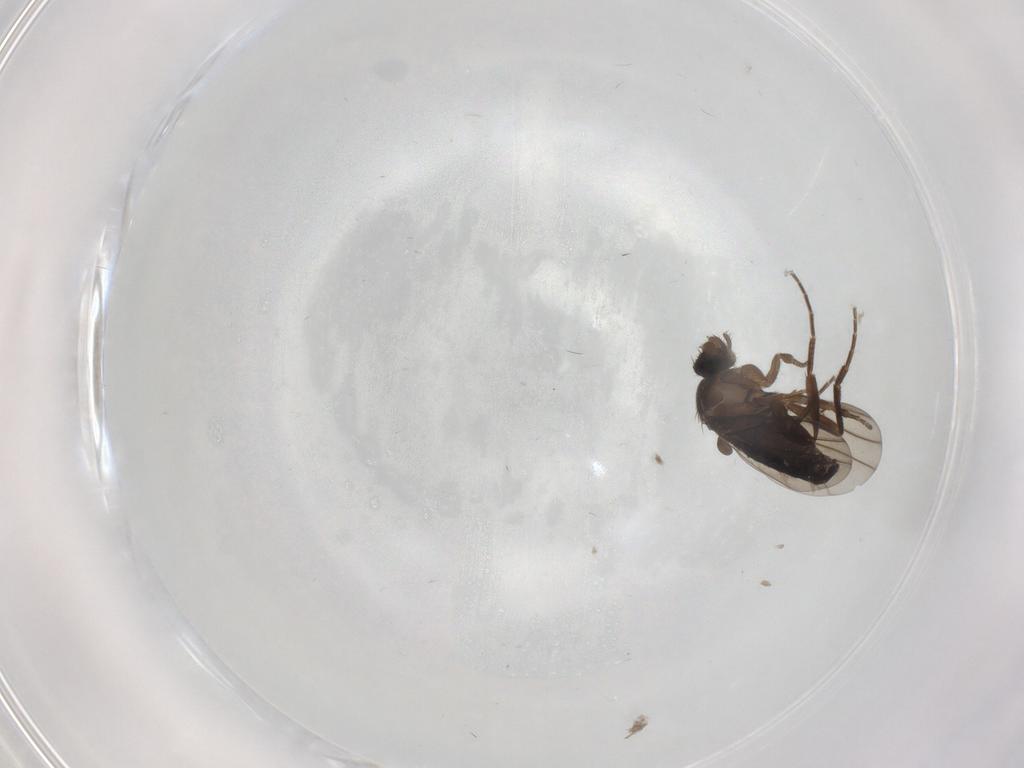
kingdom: Animalia
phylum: Arthropoda
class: Insecta
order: Diptera
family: Phoridae
